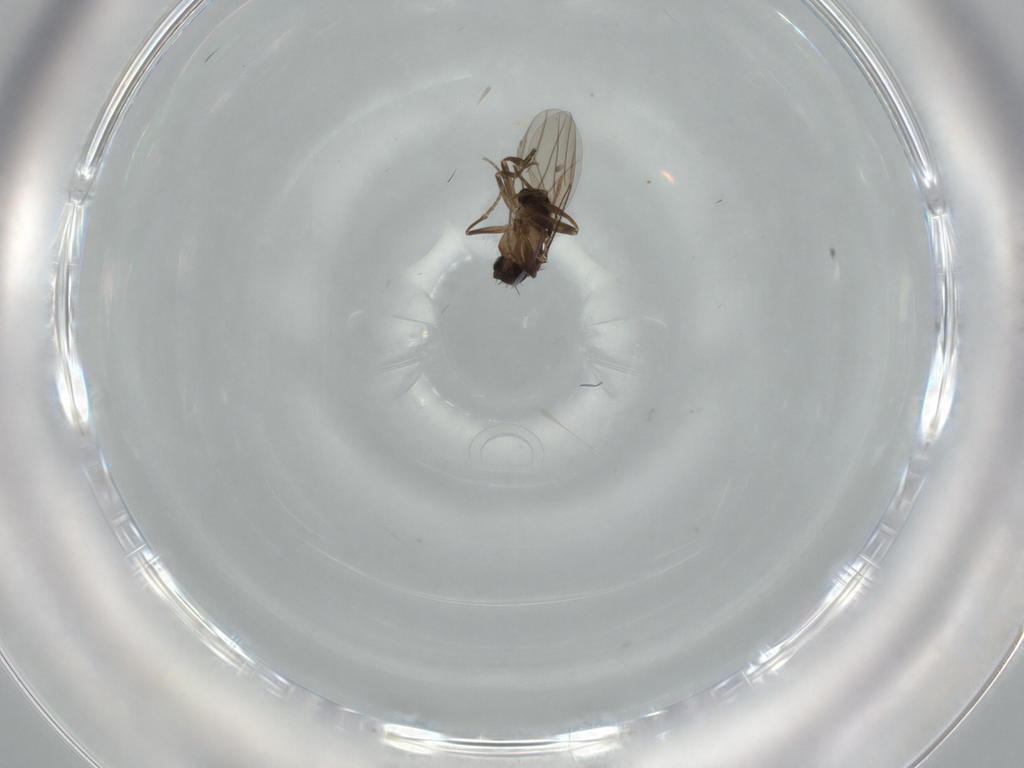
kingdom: Animalia
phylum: Arthropoda
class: Insecta
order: Diptera
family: Phoridae
